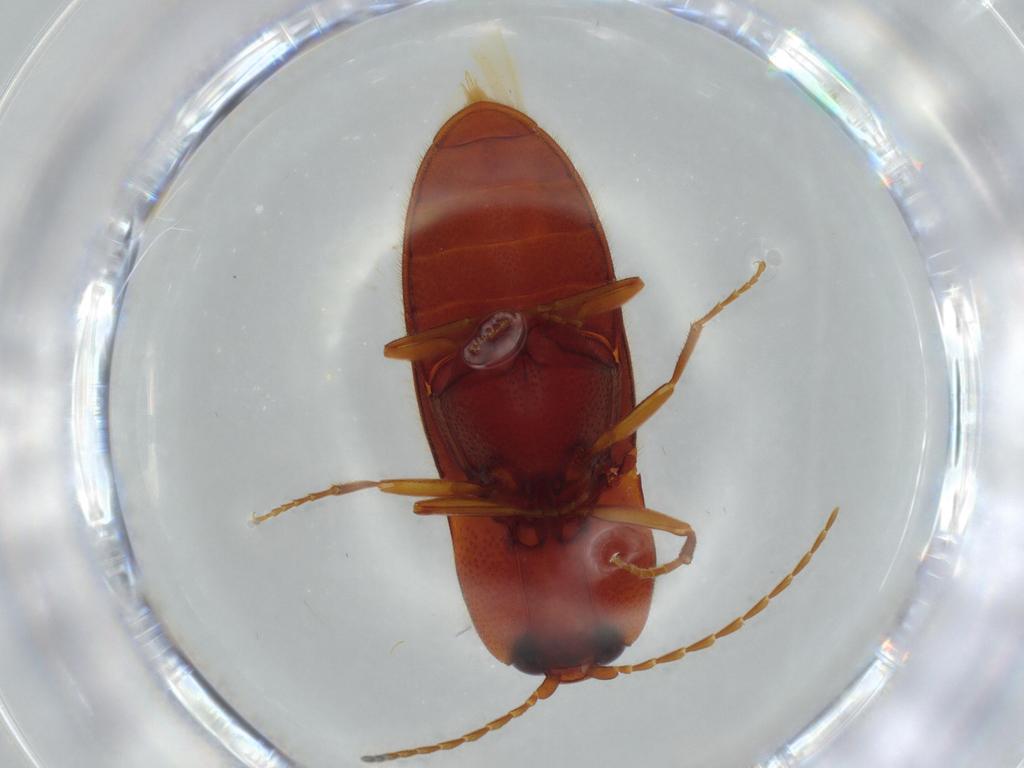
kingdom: Animalia
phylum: Arthropoda
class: Insecta
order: Coleoptera
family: Elateridae
